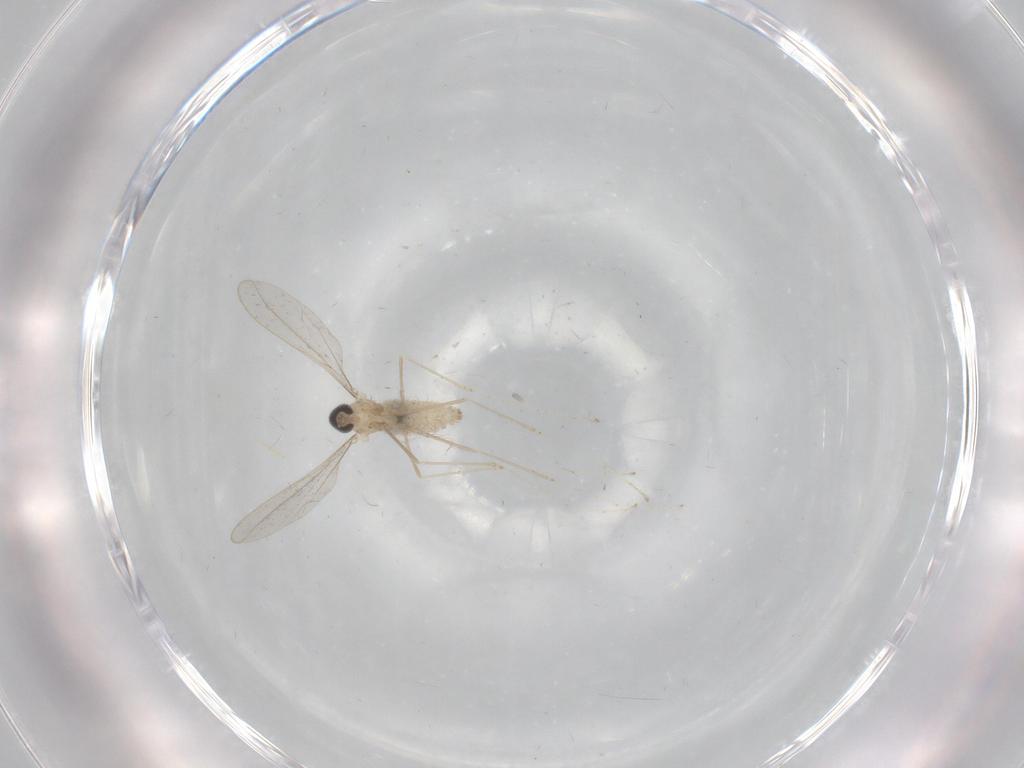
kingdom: Animalia
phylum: Arthropoda
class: Insecta
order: Diptera
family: Cecidomyiidae
